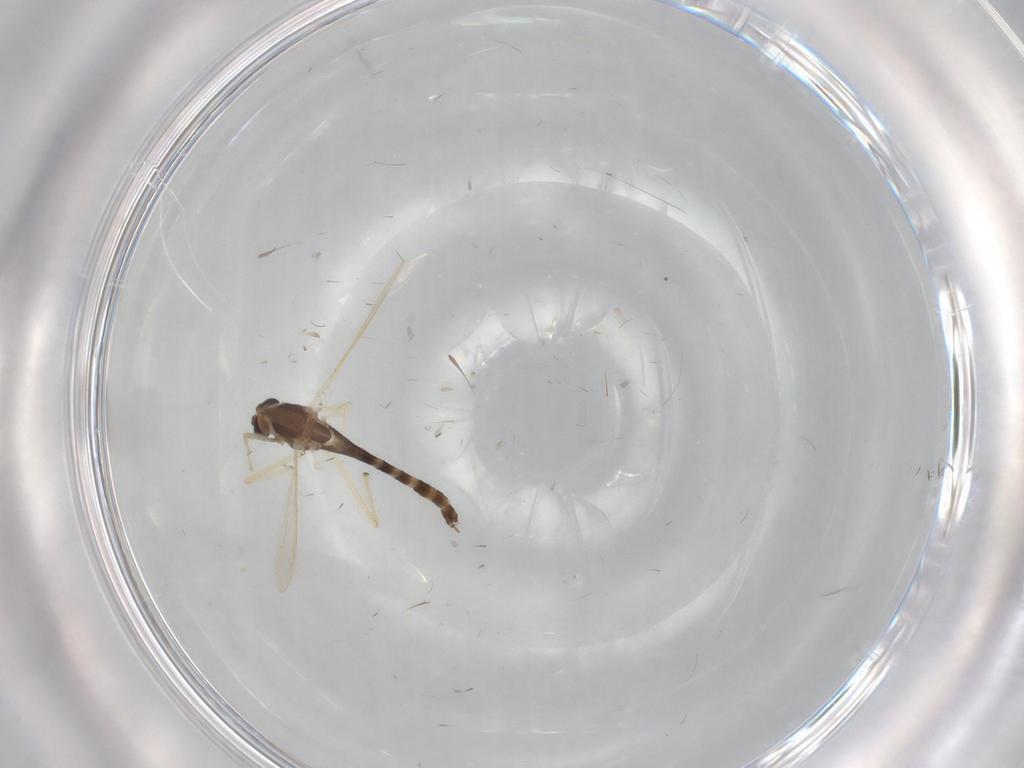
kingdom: Animalia
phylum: Arthropoda
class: Insecta
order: Diptera
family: Chironomidae
